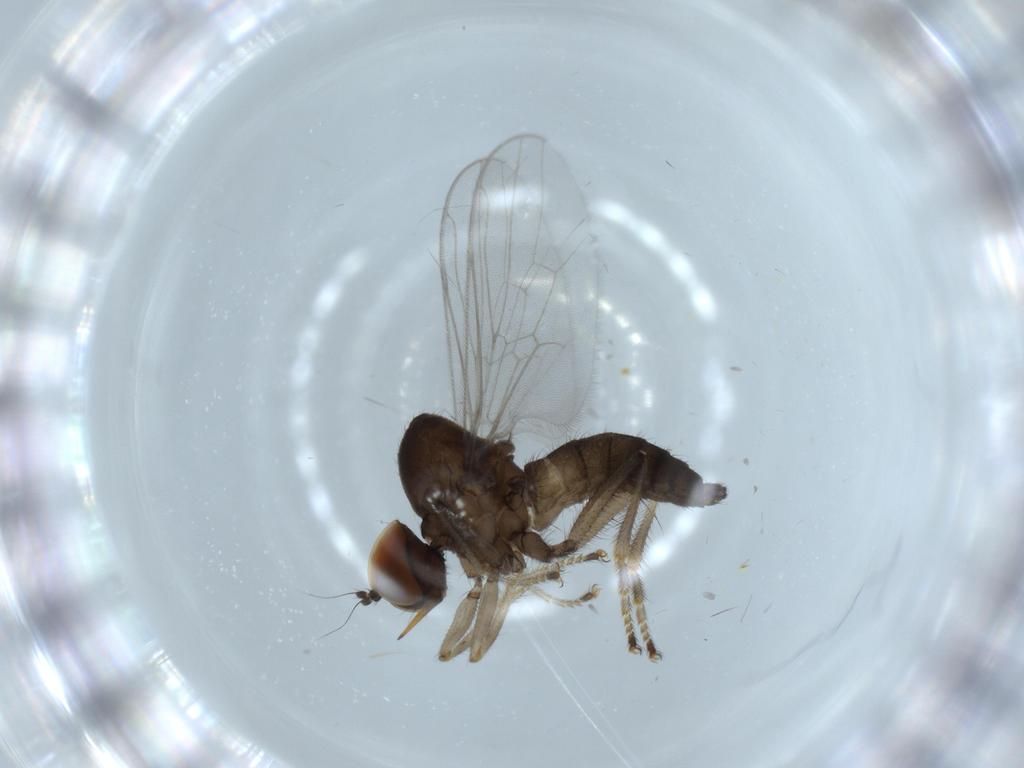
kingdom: Animalia
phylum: Arthropoda
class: Insecta
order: Diptera
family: Hybotidae
